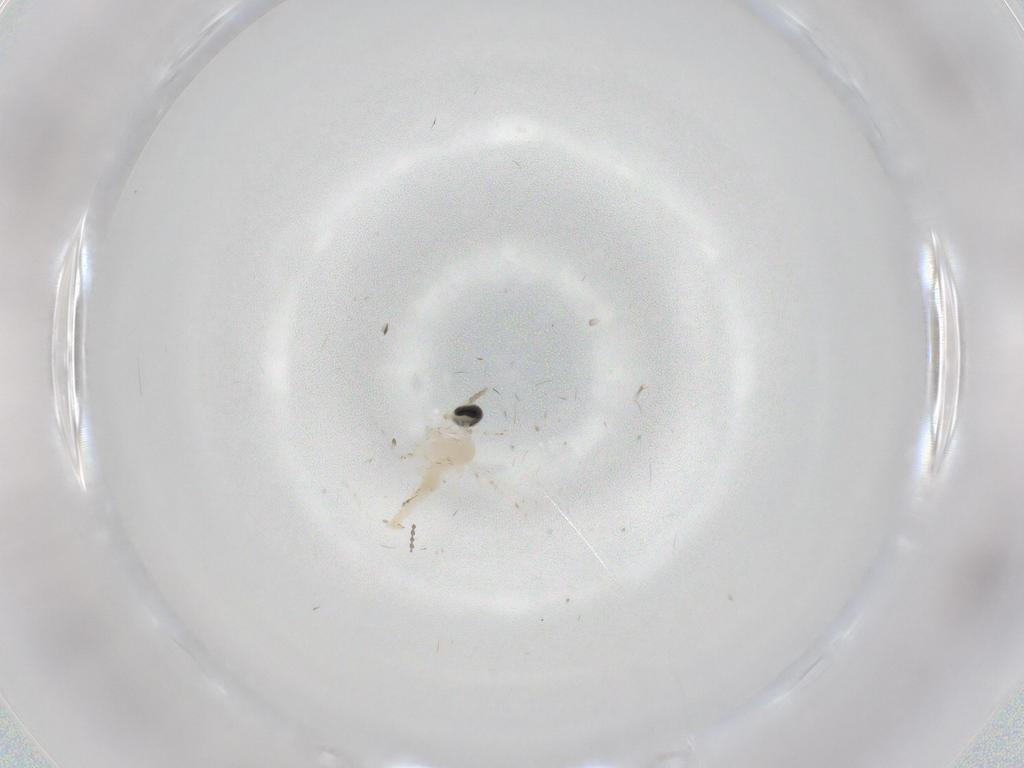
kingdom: Animalia
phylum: Arthropoda
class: Insecta
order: Diptera
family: Cecidomyiidae
